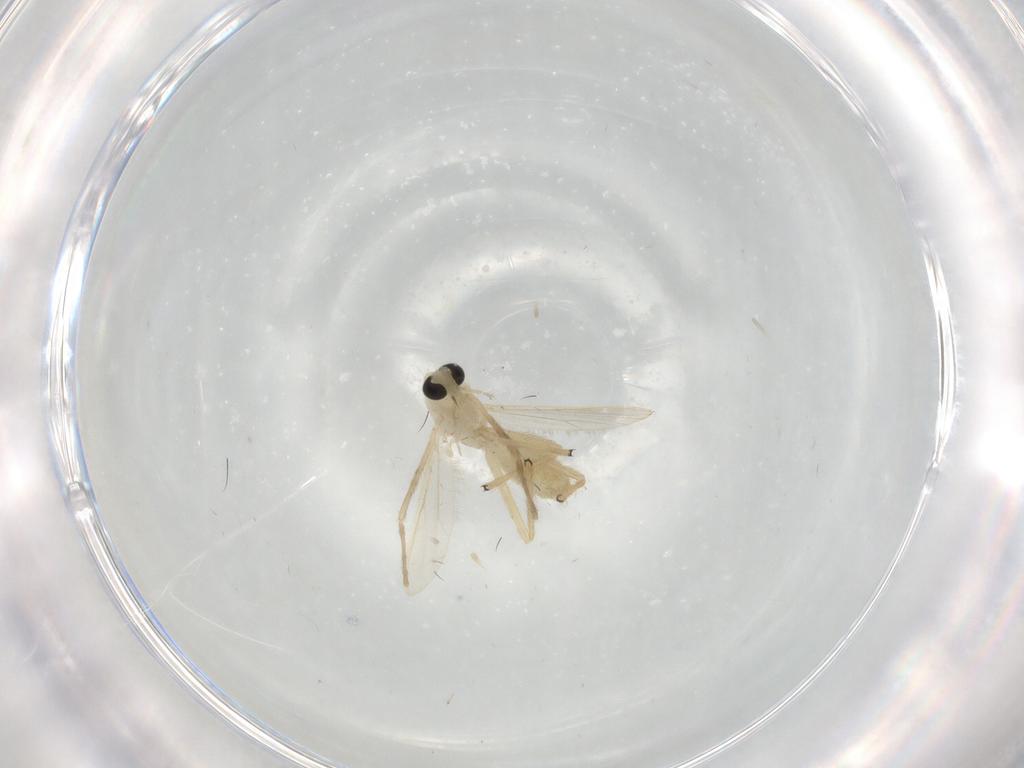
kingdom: Animalia
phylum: Arthropoda
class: Insecta
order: Diptera
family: Chironomidae
